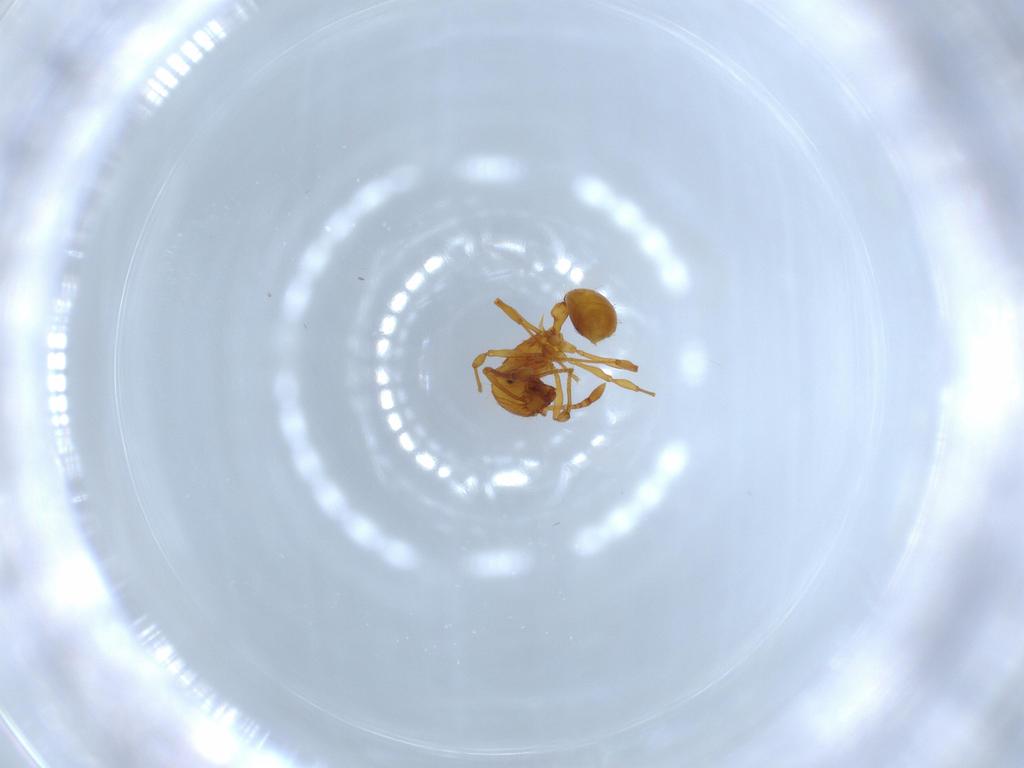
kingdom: Animalia
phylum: Arthropoda
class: Insecta
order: Hymenoptera
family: Formicidae
